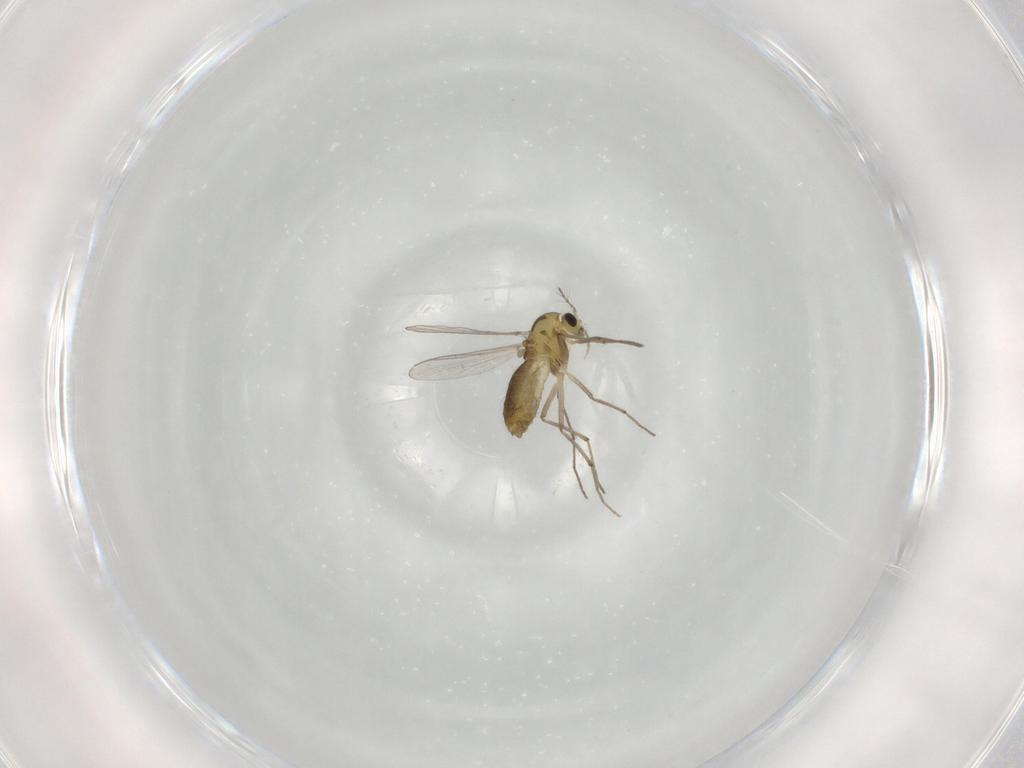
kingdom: Animalia
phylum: Arthropoda
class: Insecta
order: Diptera
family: Chironomidae
